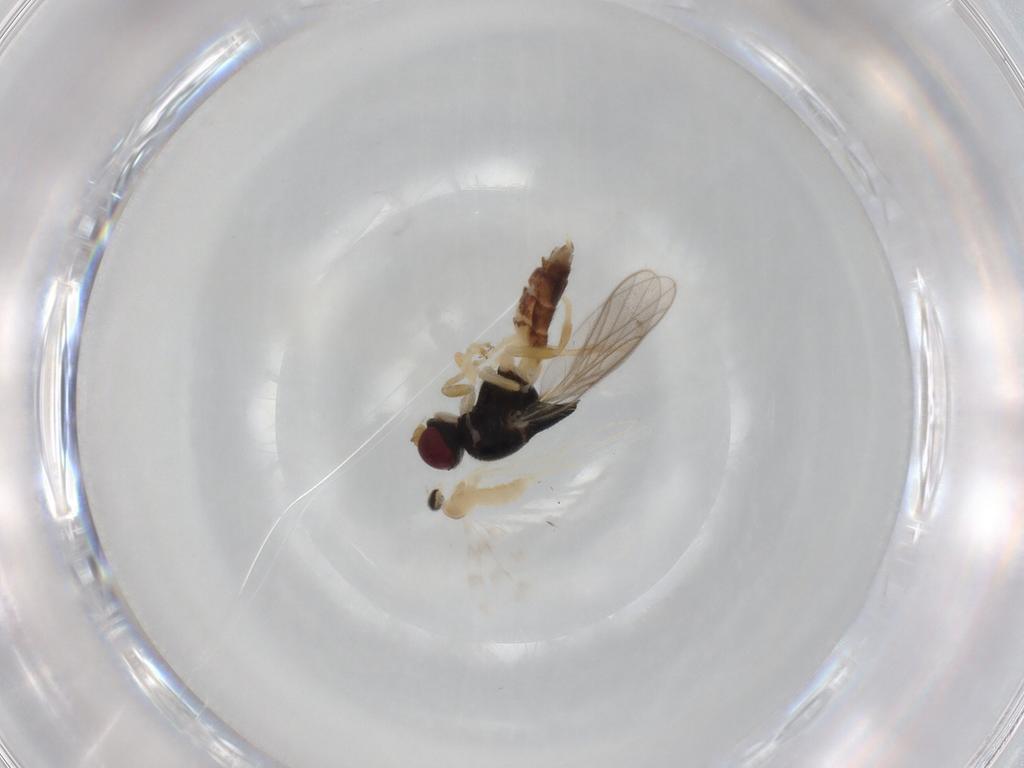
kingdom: Animalia
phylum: Arthropoda
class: Insecta
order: Diptera
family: Chloropidae
